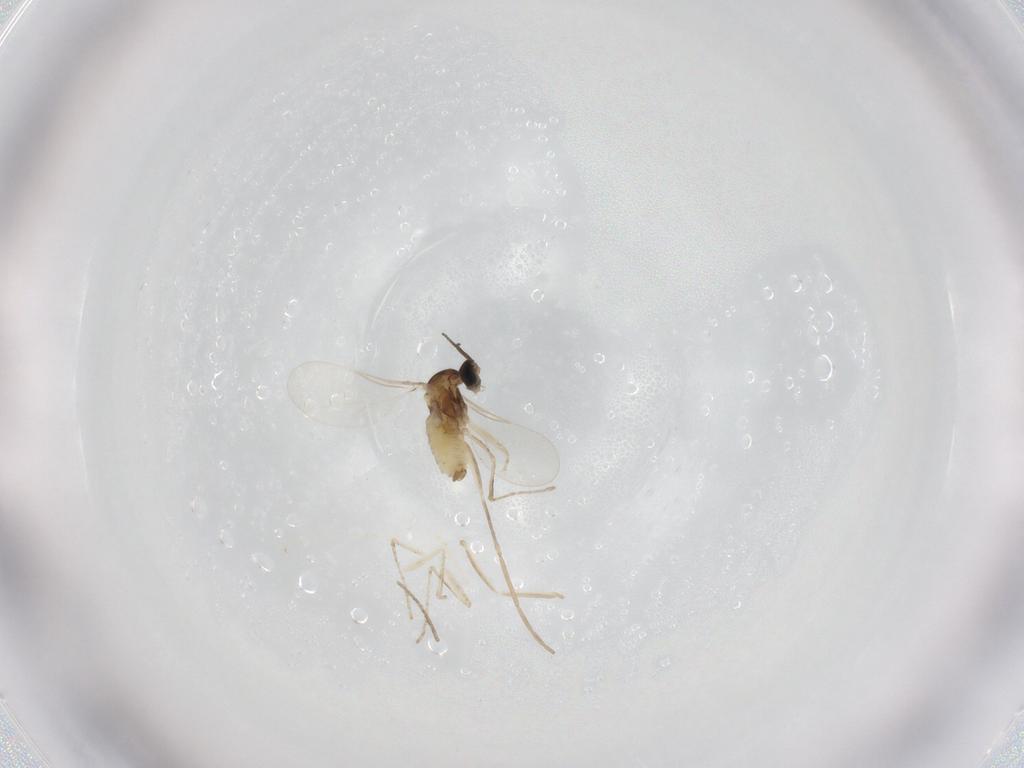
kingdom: Animalia
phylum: Arthropoda
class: Insecta
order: Diptera
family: Cecidomyiidae
